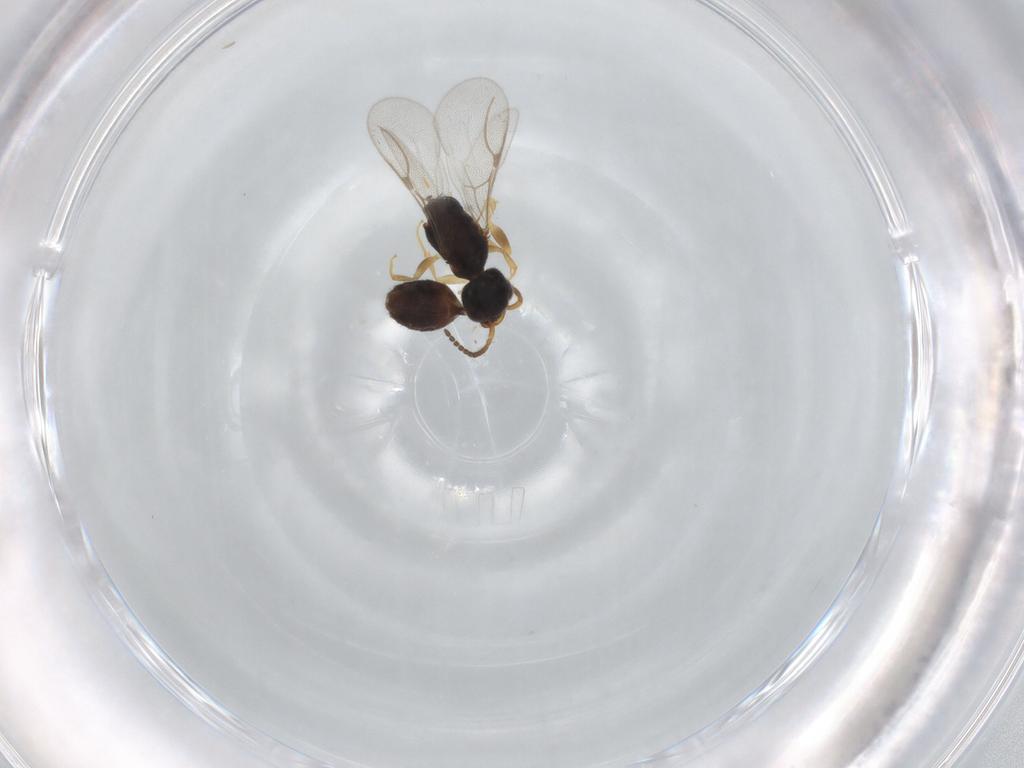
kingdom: Animalia
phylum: Arthropoda
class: Insecta
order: Hymenoptera
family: Bethylidae
